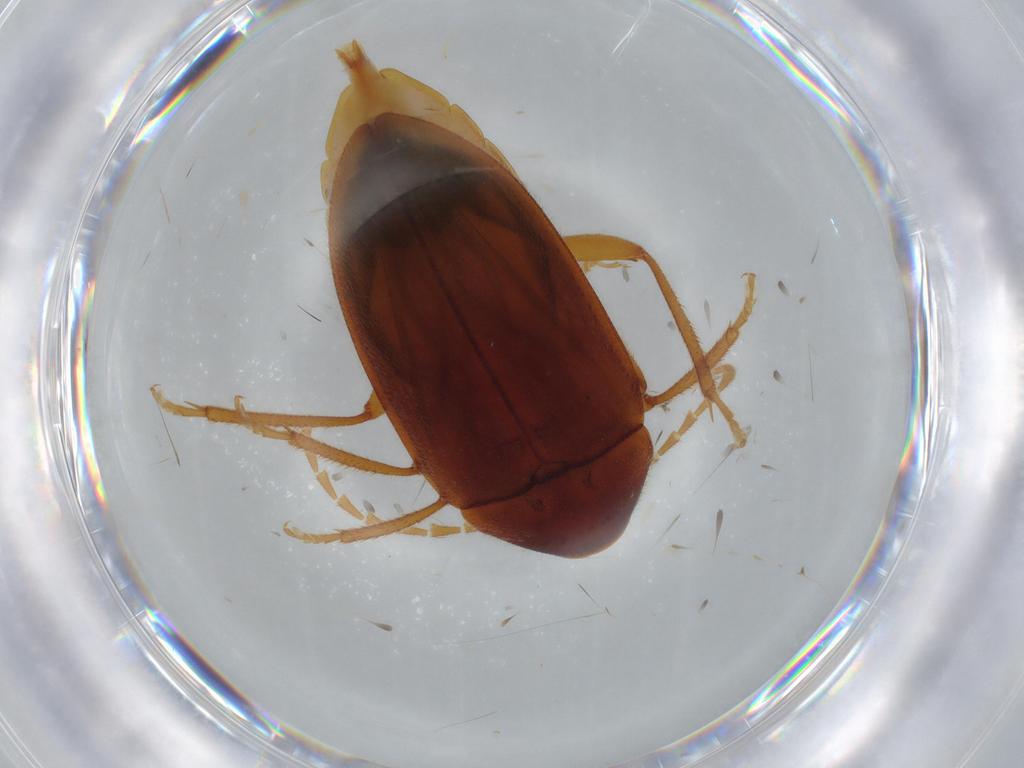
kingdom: Animalia
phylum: Arthropoda
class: Insecta
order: Coleoptera
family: Ptilodactylidae
